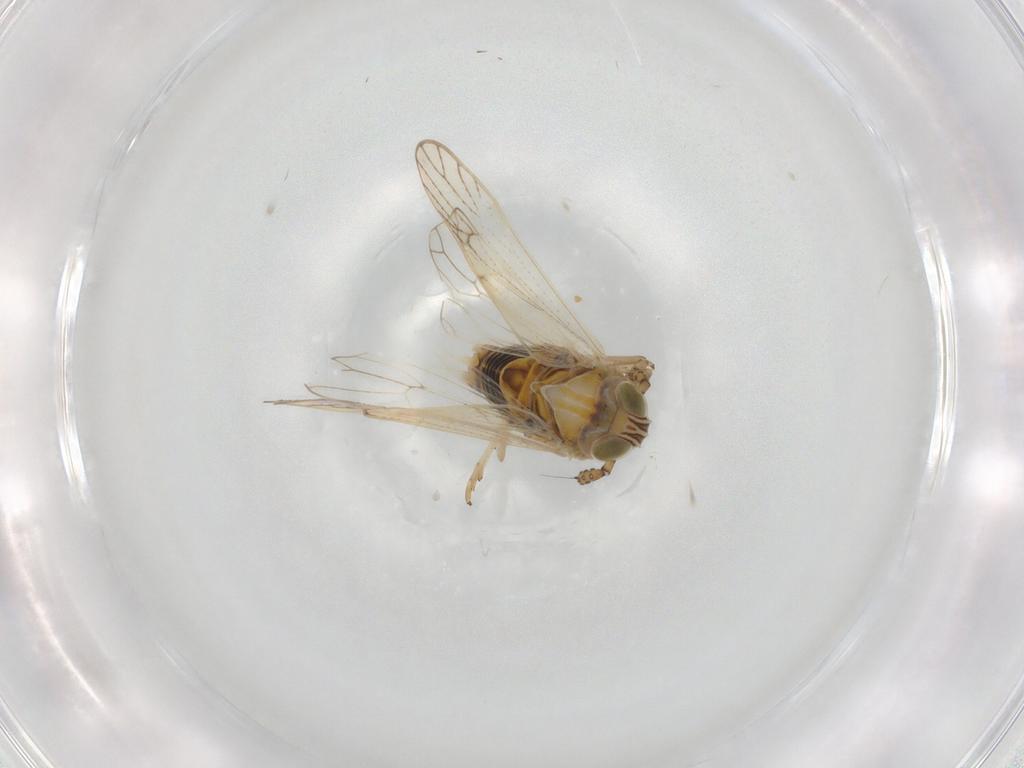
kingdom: Animalia
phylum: Arthropoda
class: Insecta
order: Hemiptera
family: Delphacidae
